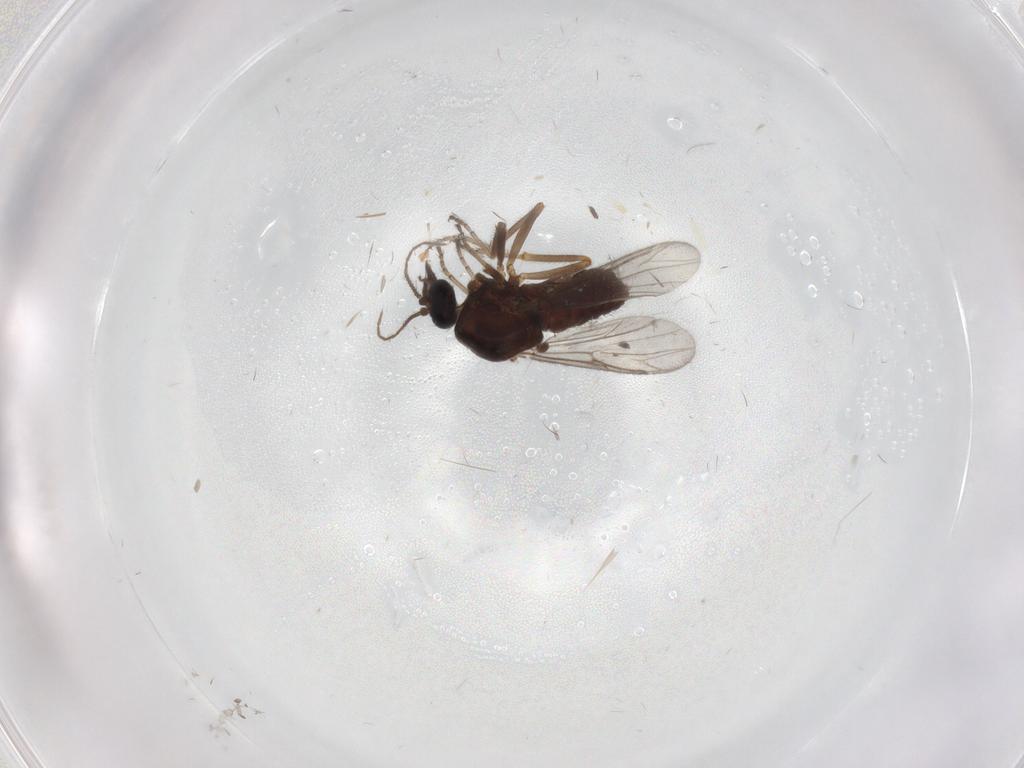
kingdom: Animalia
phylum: Arthropoda
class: Insecta
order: Diptera
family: Ceratopogonidae
